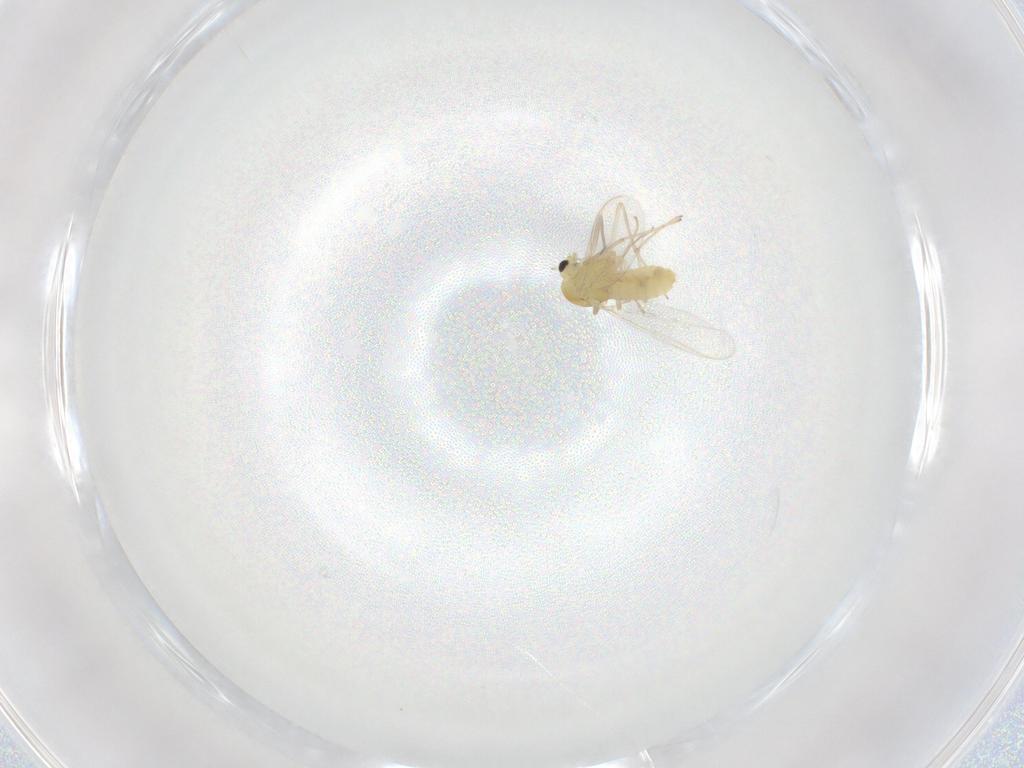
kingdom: Animalia
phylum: Arthropoda
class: Insecta
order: Diptera
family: Chironomidae
